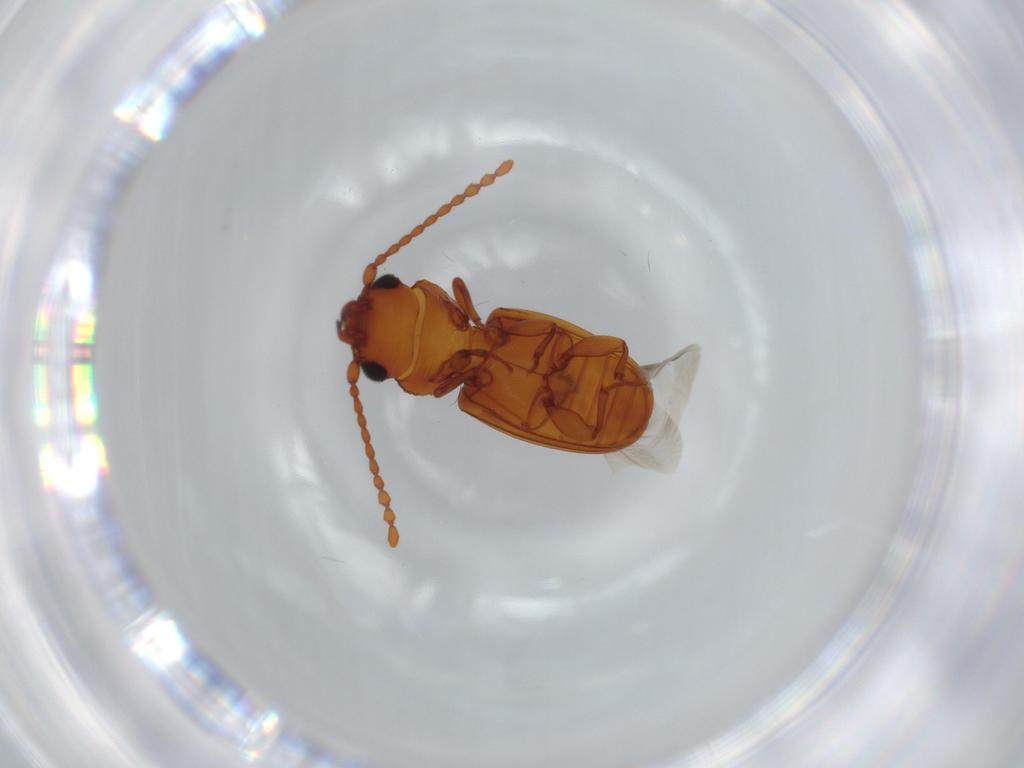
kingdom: Animalia
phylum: Arthropoda
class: Insecta
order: Coleoptera
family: Laemophloeidae
